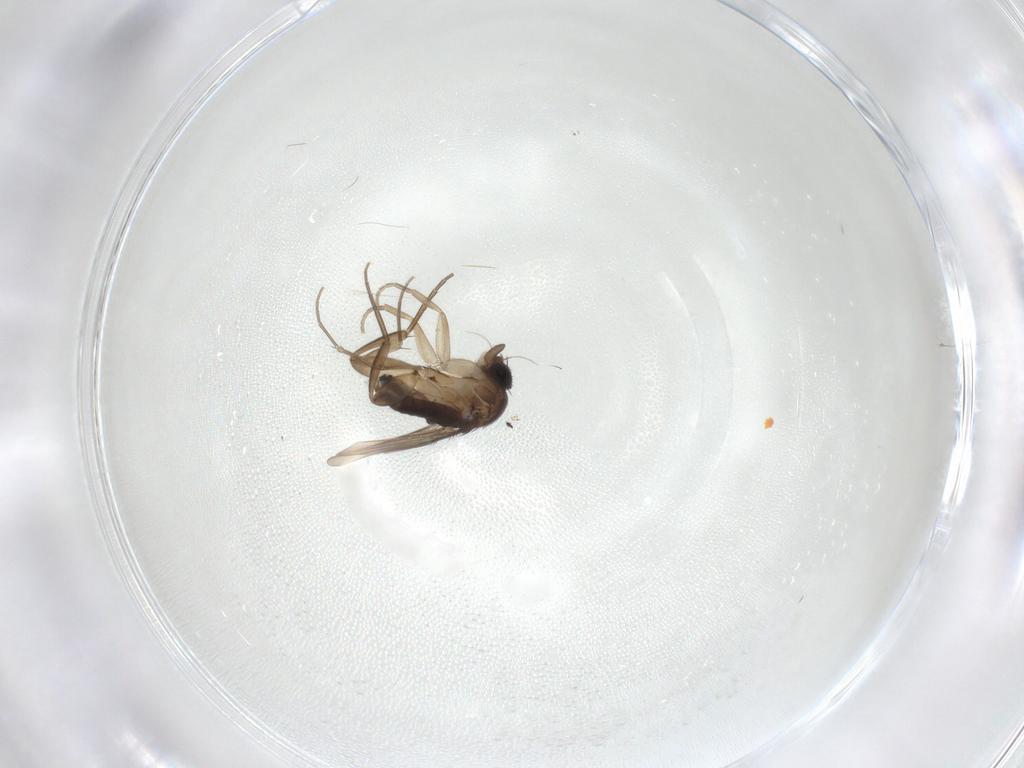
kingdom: Animalia
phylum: Arthropoda
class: Insecta
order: Diptera
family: Phoridae
